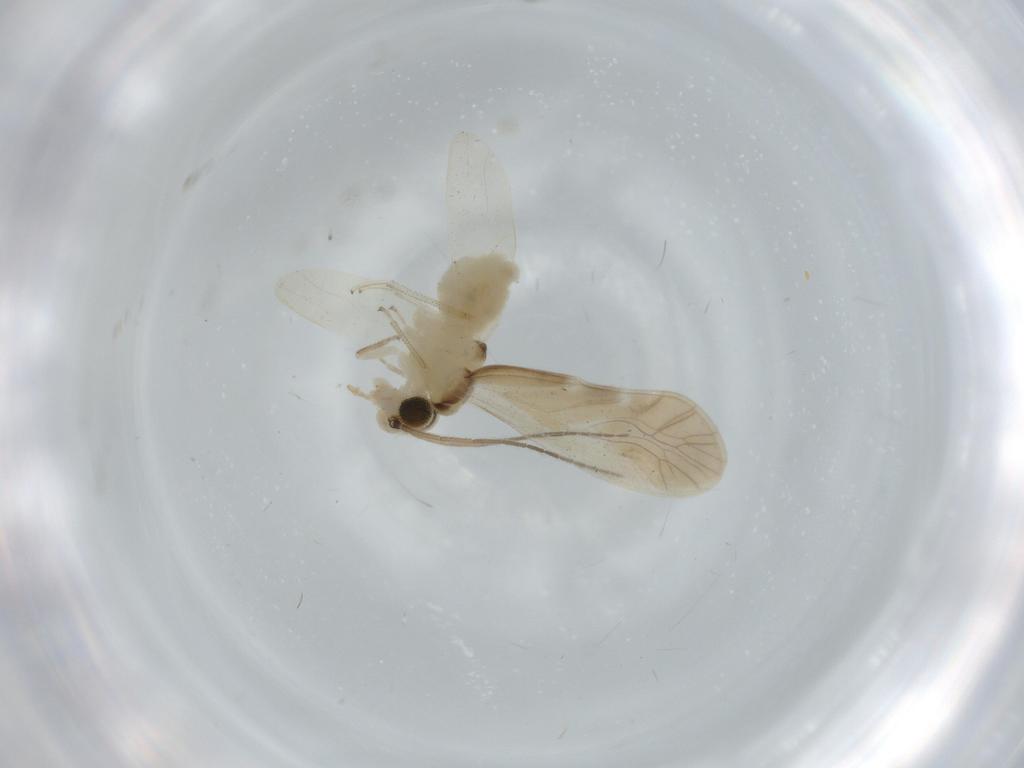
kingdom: Animalia
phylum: Arthropoda
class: Insecta
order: Psocodea
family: Caeciliusidae
